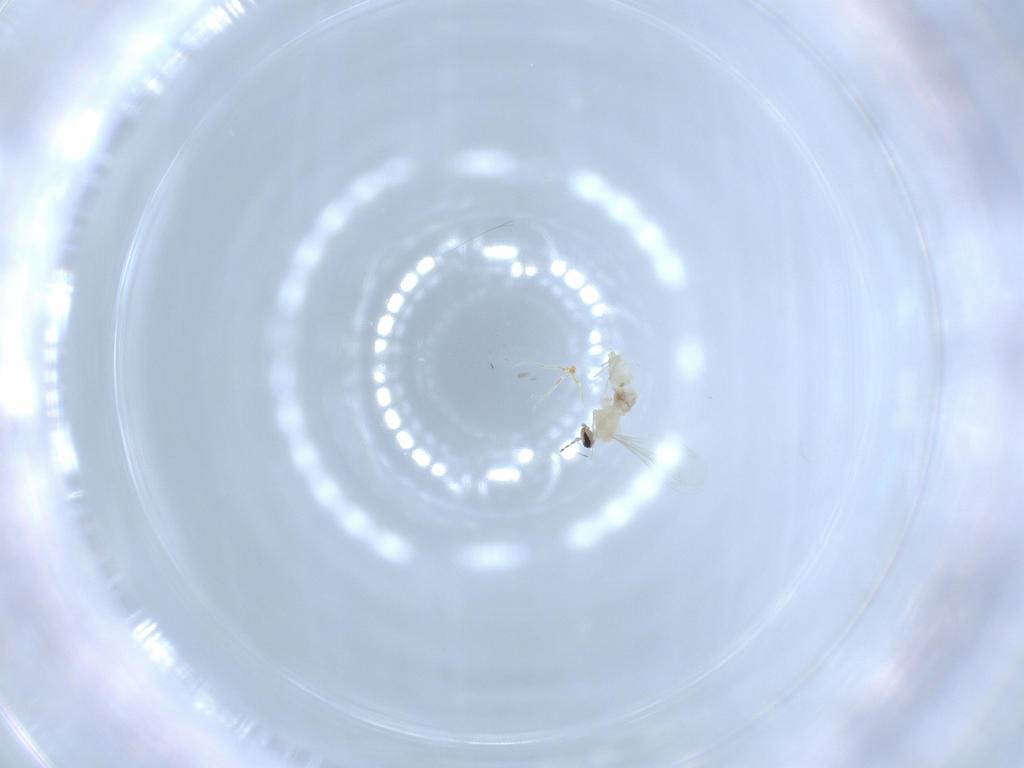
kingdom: Animalia
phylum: Arthropoda
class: Insecta
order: Diptera
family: Cecidomyiidae
